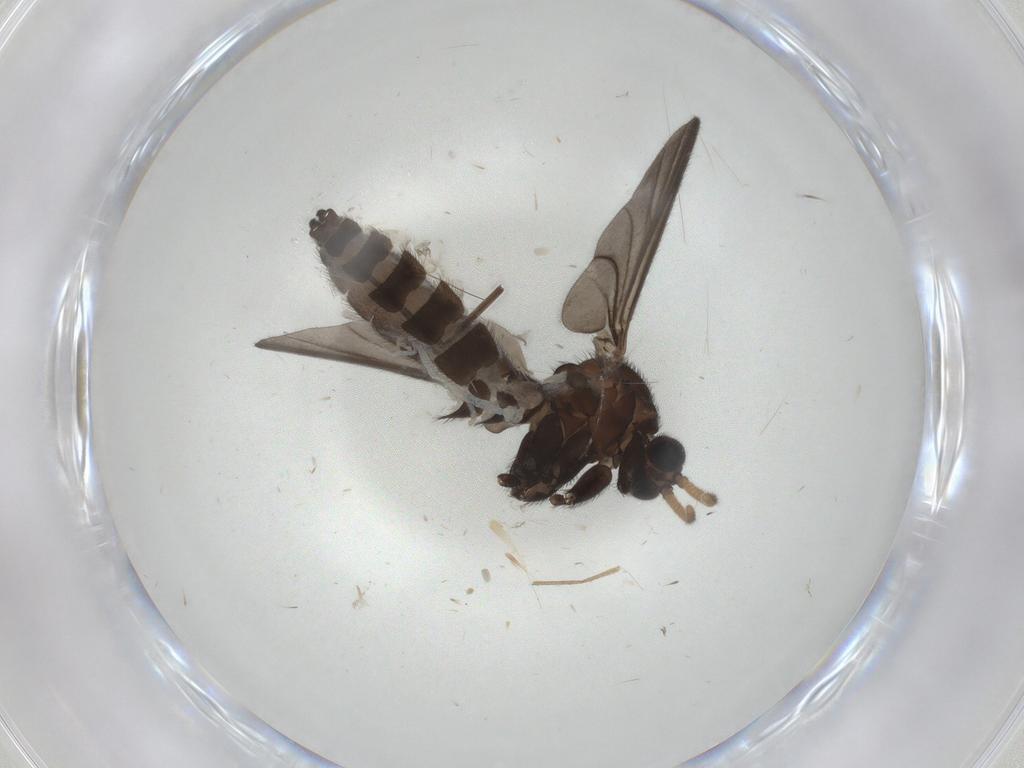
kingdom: Animalia
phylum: Arthropoda
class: Insecta
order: Diptera
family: Mycetophilidae
